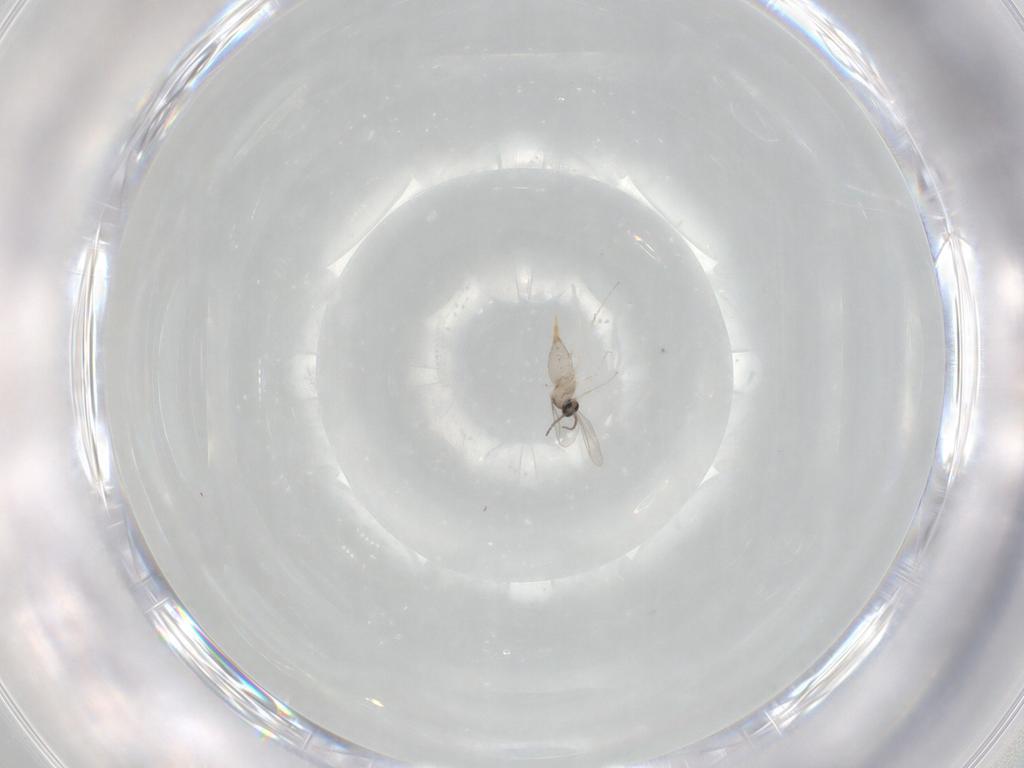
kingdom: Animalia
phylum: Arthropoda
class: Insecta
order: Diptera
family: Cecidomyiidae
